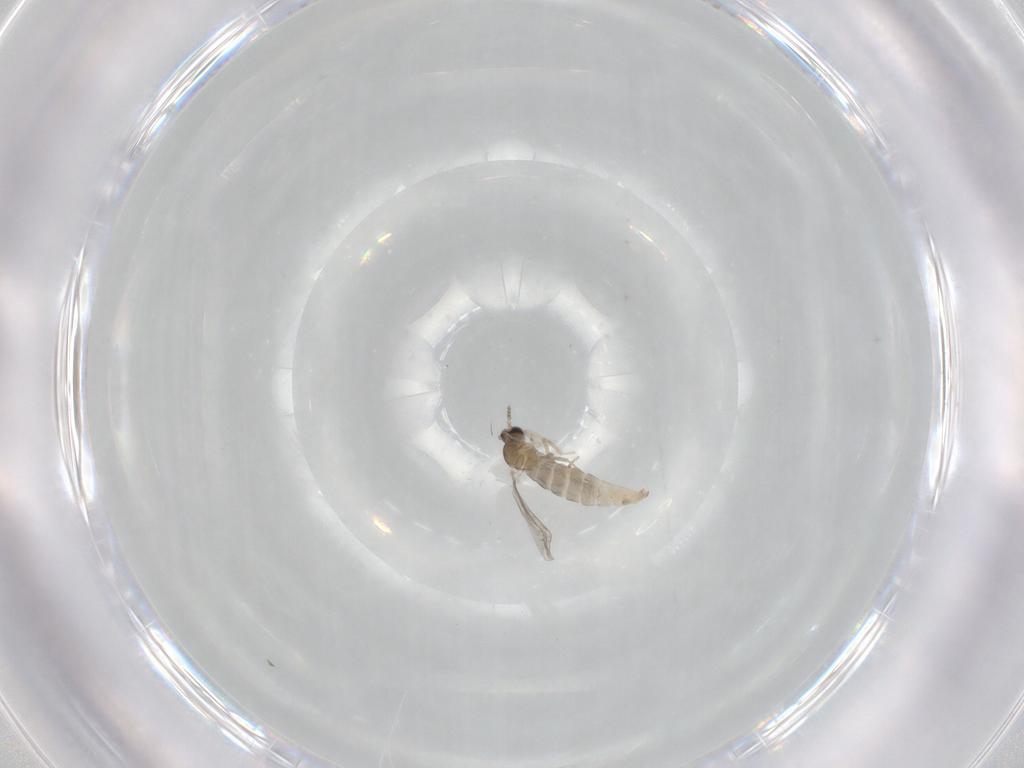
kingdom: Animalia
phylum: Arthropoda
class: Insecta
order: Diptera
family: Cecidomyiidae
